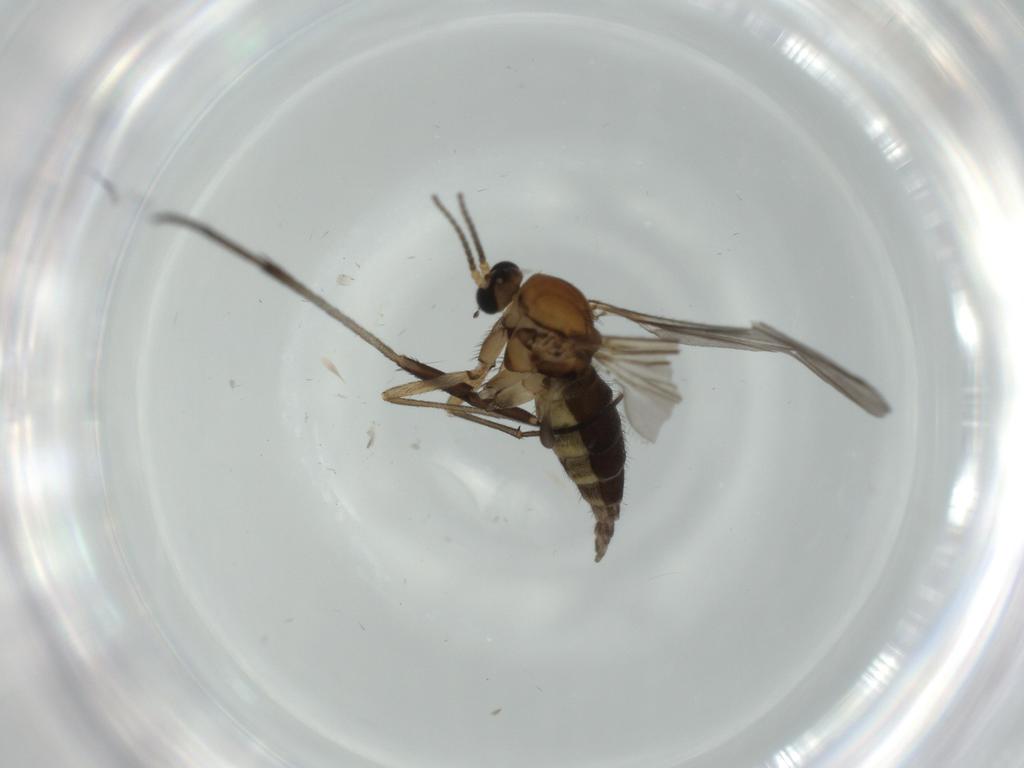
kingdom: Animalia
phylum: Arthropoda
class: Insecta
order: Diptera
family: Sciaridae
